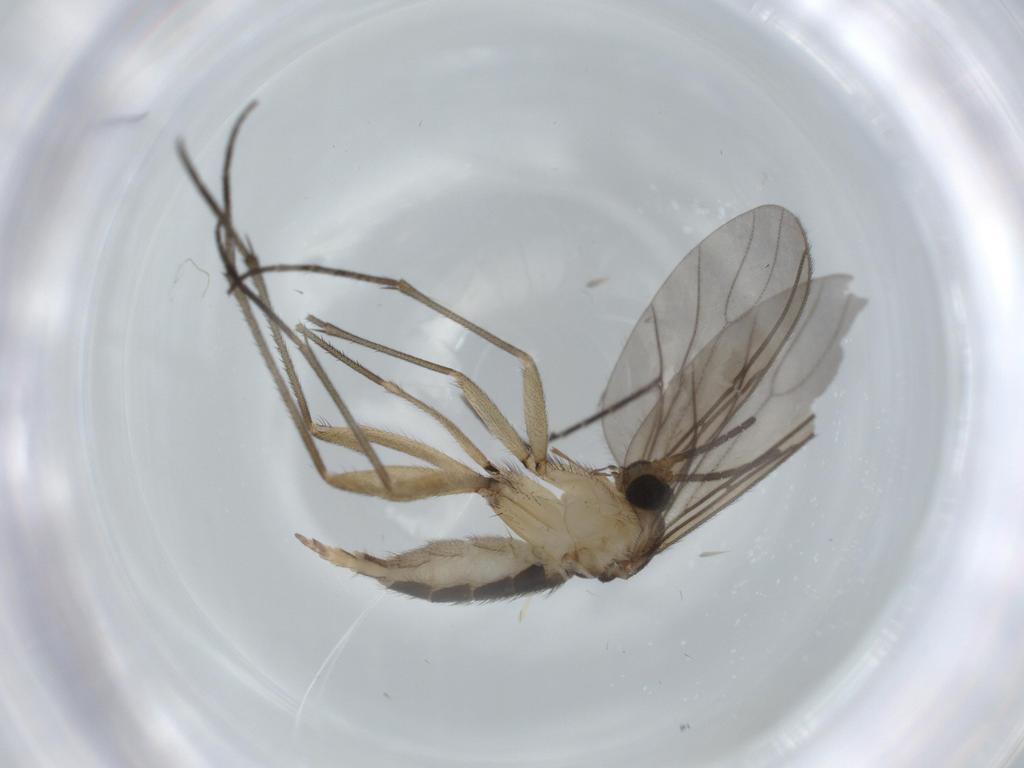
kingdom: Animalia
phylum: Arthropoda
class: Insecta
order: Diptera
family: Sciaridae
